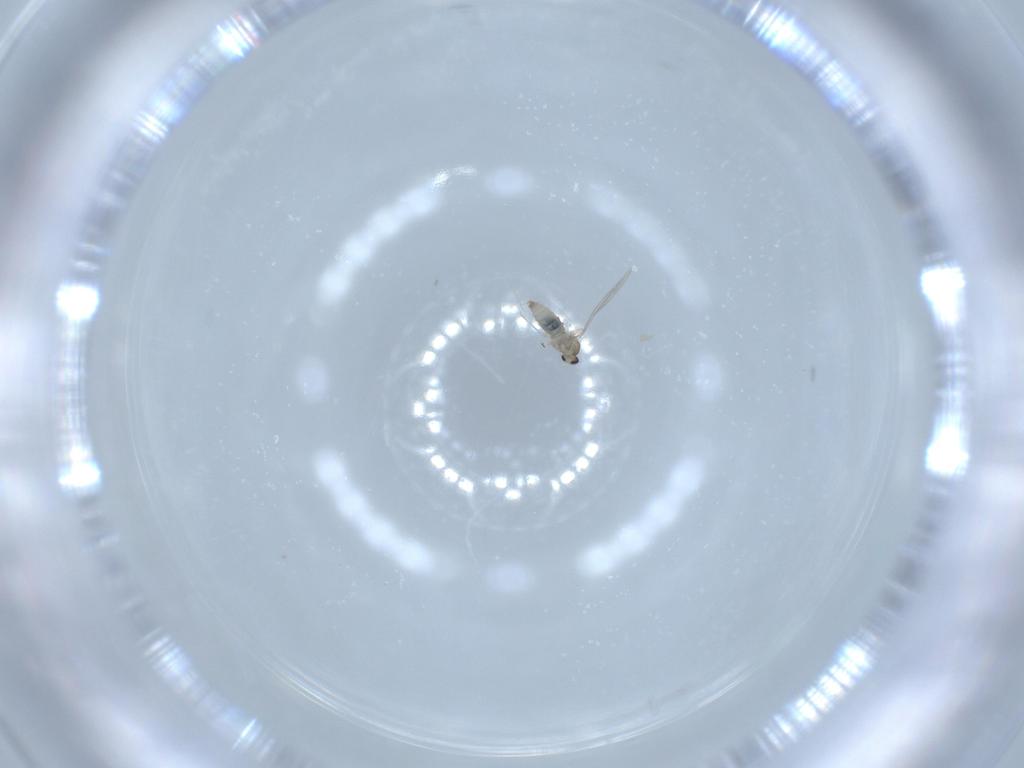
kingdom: Animalia
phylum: Arthropoda
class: Insecta
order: Diptera
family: Cecidomyiidae
